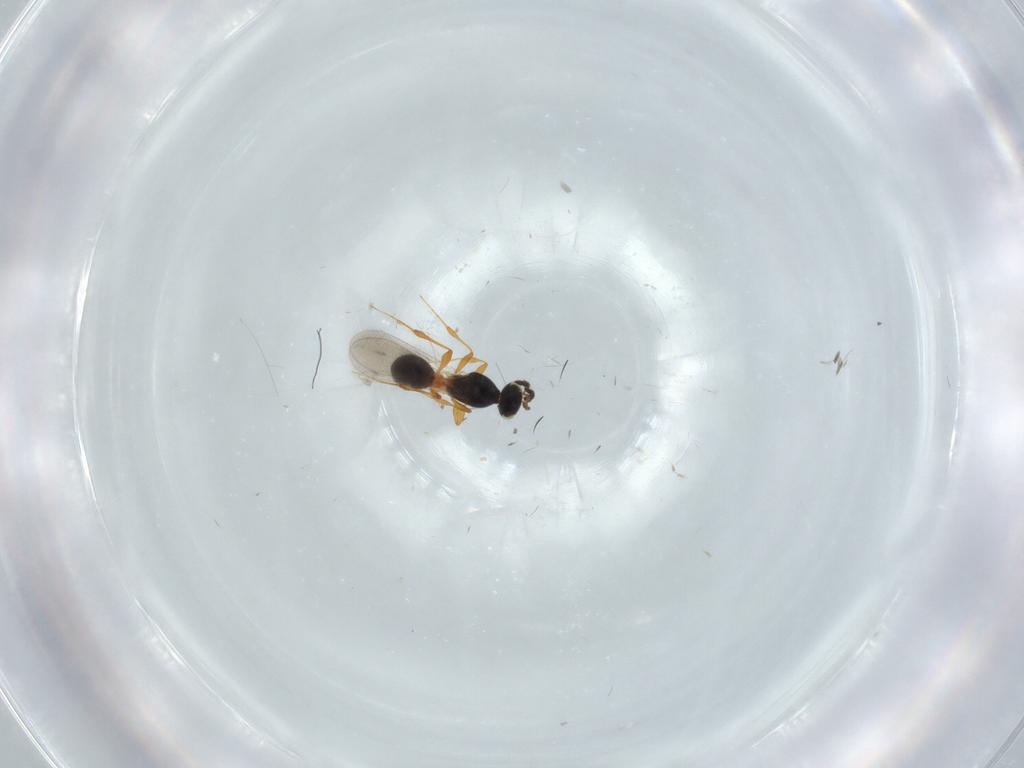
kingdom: Animalia
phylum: Arthropoda
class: Insecta
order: Hymenoptera
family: Platygastridae
